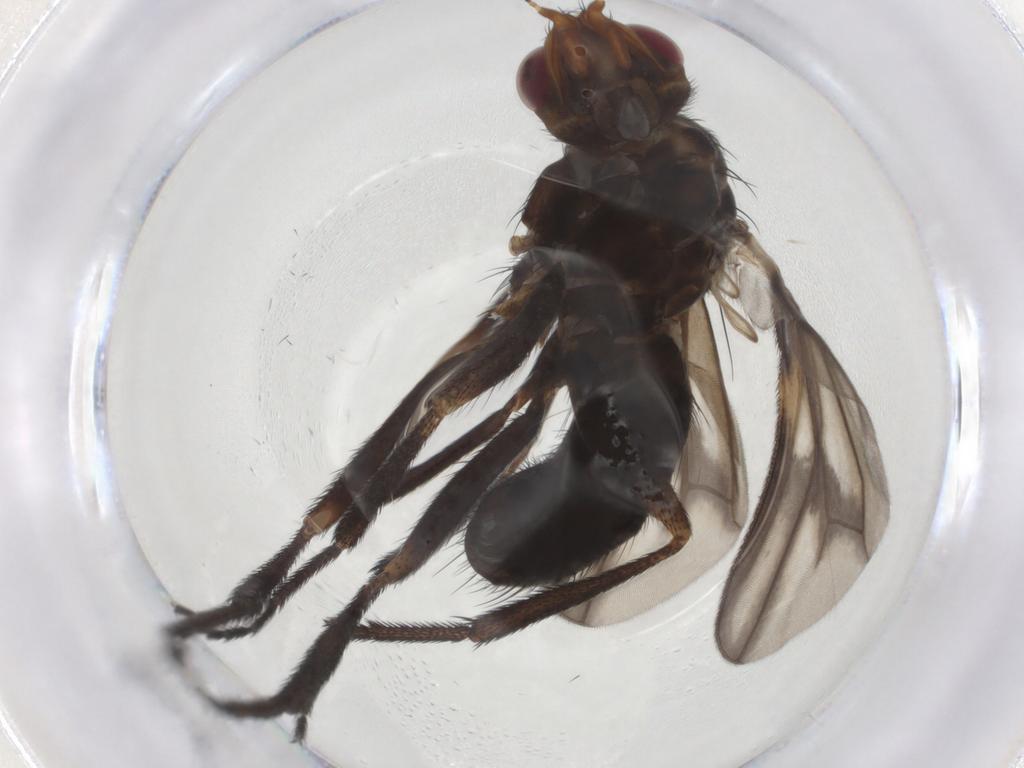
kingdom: Animalia
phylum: Arthropoda
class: Insecta
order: Diptera
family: Calliphoridae
